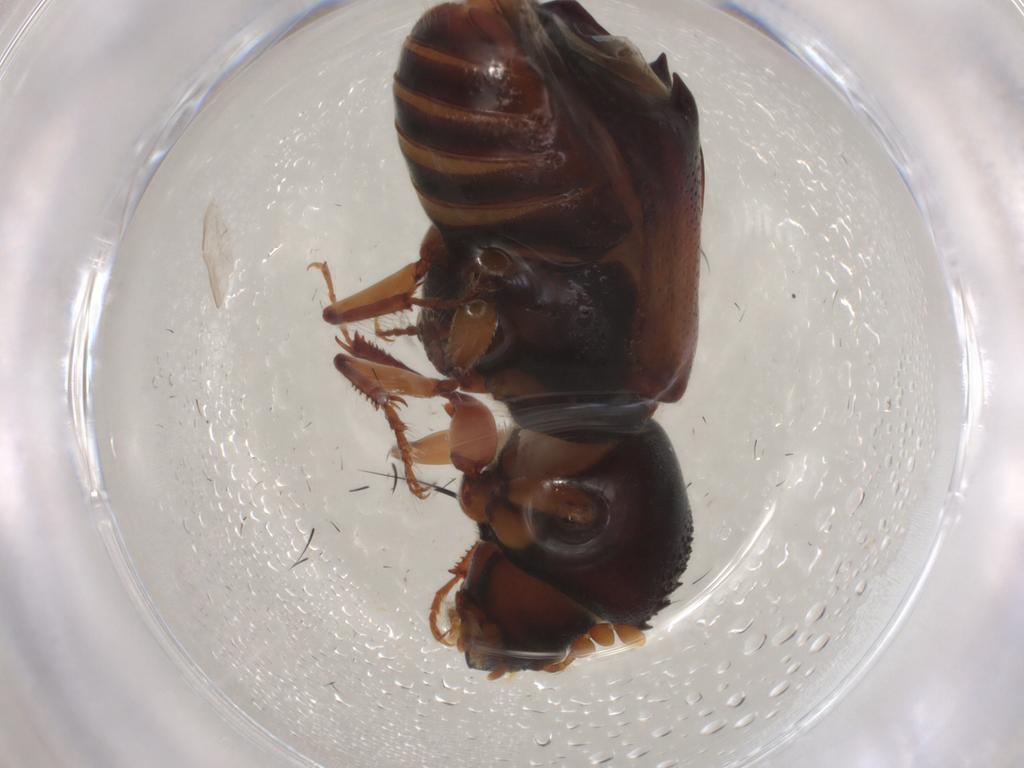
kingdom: Animalia
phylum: Arthropoda
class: Insecta
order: Coleoptera
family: Bostrichidae
